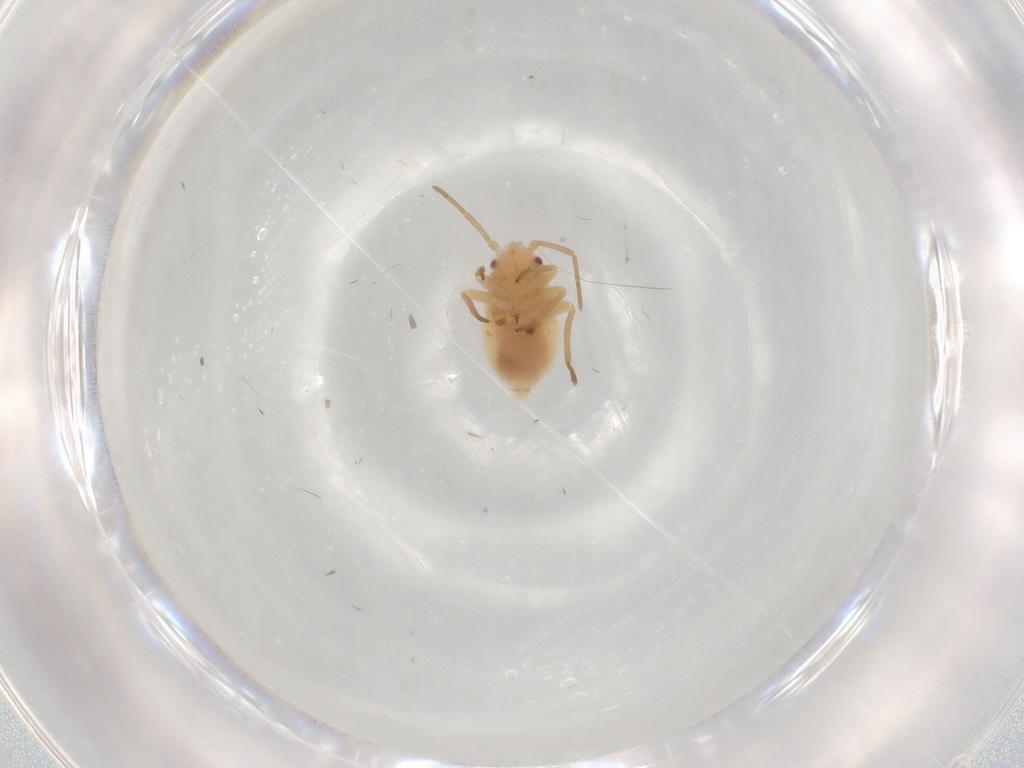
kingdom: Animalia
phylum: Arthropoda
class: Insecta
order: Hemiptera
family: Miridae
